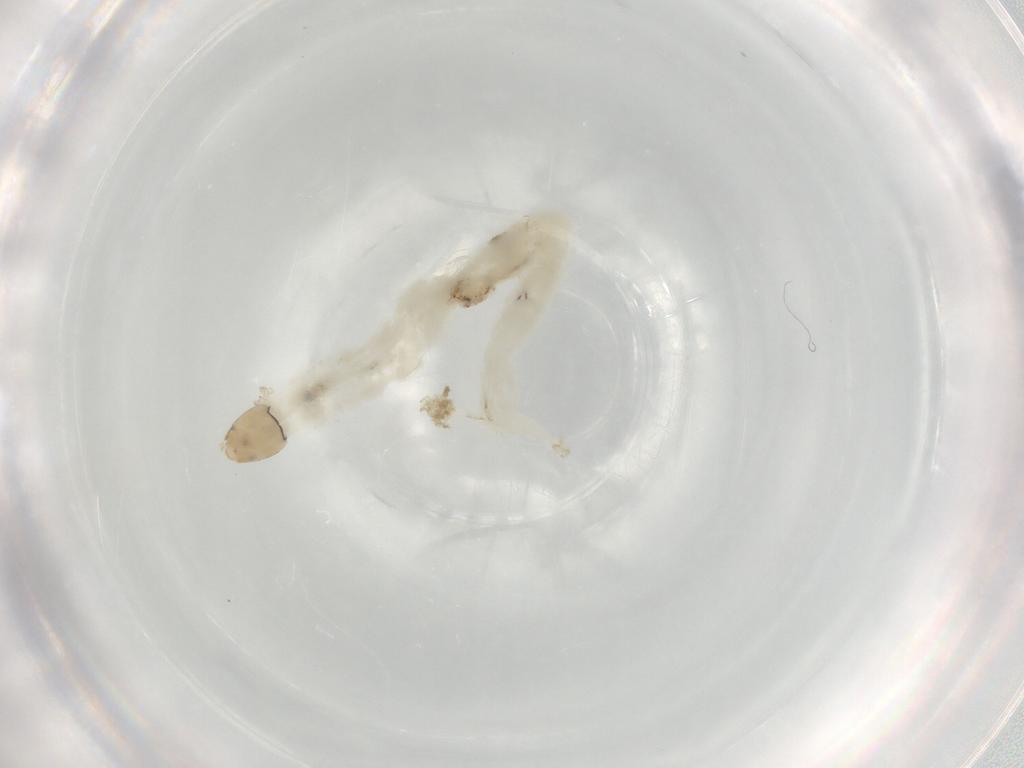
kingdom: Animalia
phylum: Arthropoda
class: Insecta
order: Diptera
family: Chironomidae
